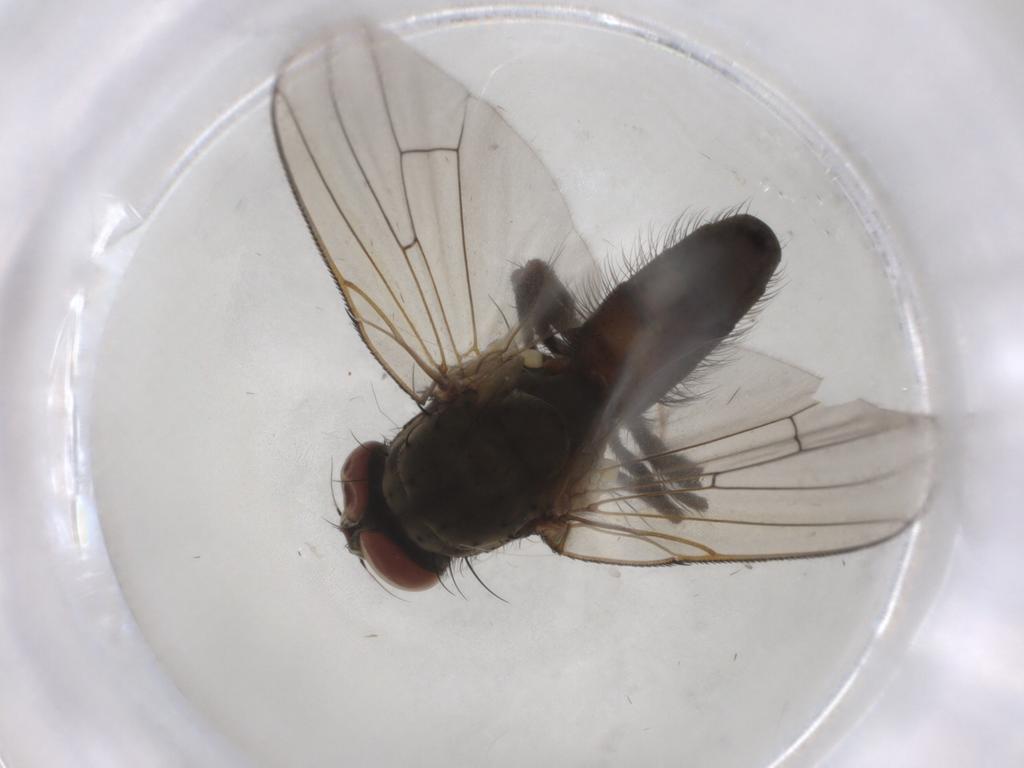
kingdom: Animalia
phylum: Arthropoda
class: Insecta
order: Diptera
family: Anthomyiidae
